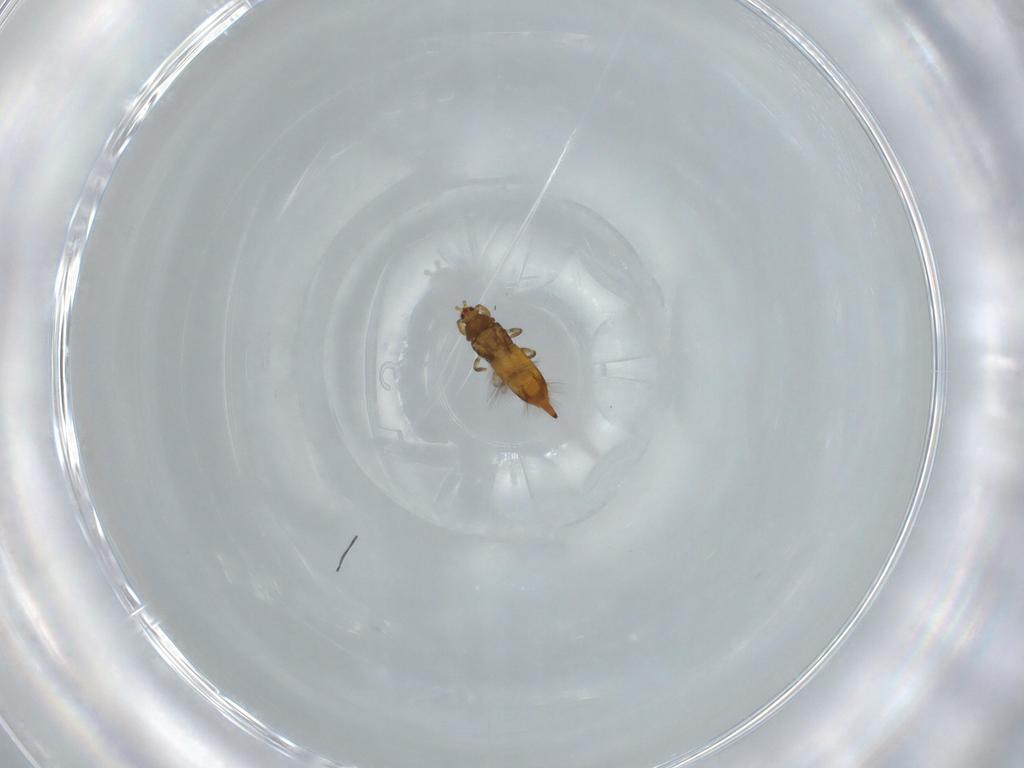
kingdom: Animalia
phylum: Arthropoda
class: Insecta
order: Thysanoptera
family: Phlaeothripidae
